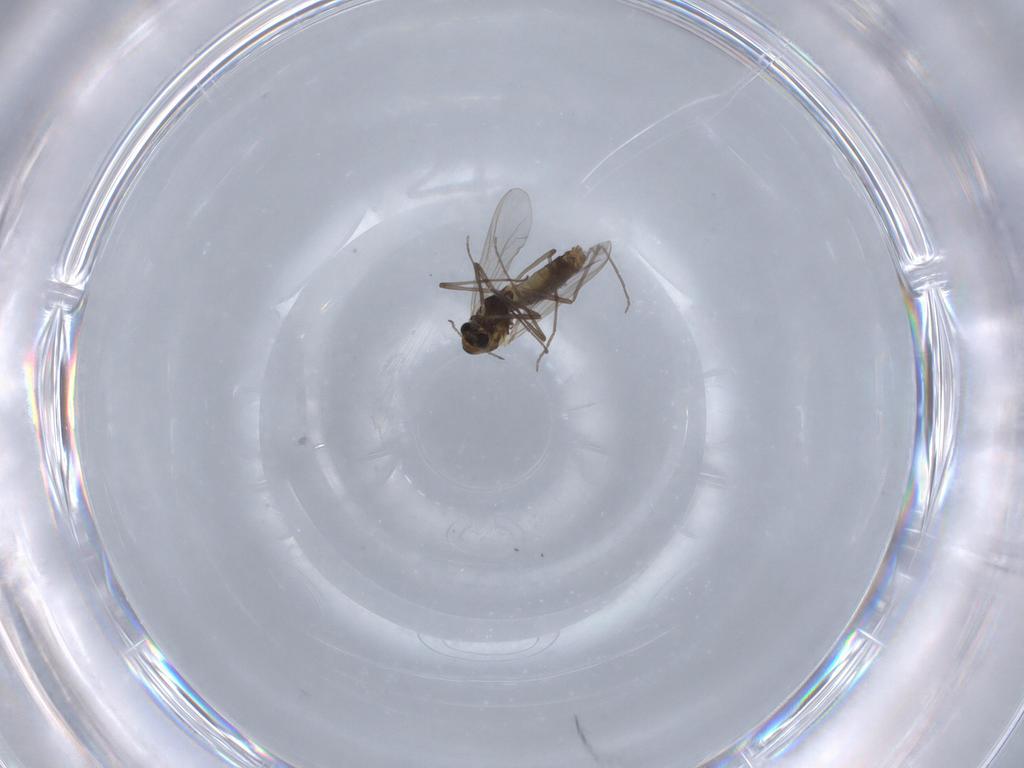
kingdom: Animalia
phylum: Arthropoda
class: Insecta
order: Diptera
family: Chironomidae
